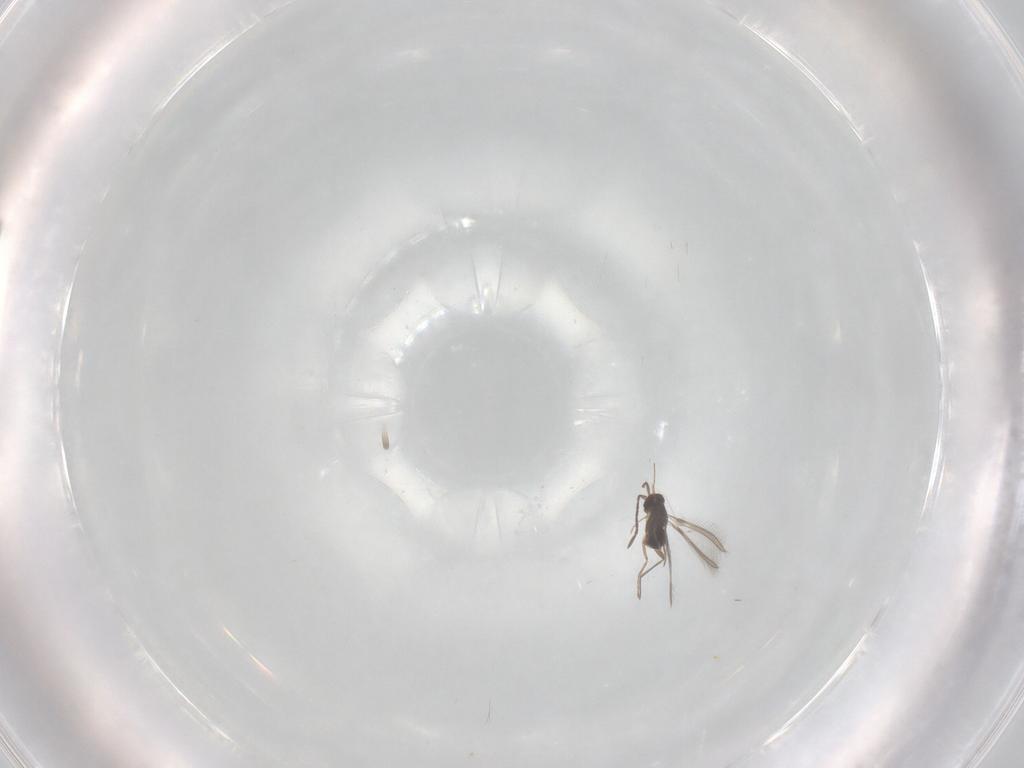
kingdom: Animalia
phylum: Arthropoda
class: Insecta
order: Hymenoptera
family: Mymaridae
